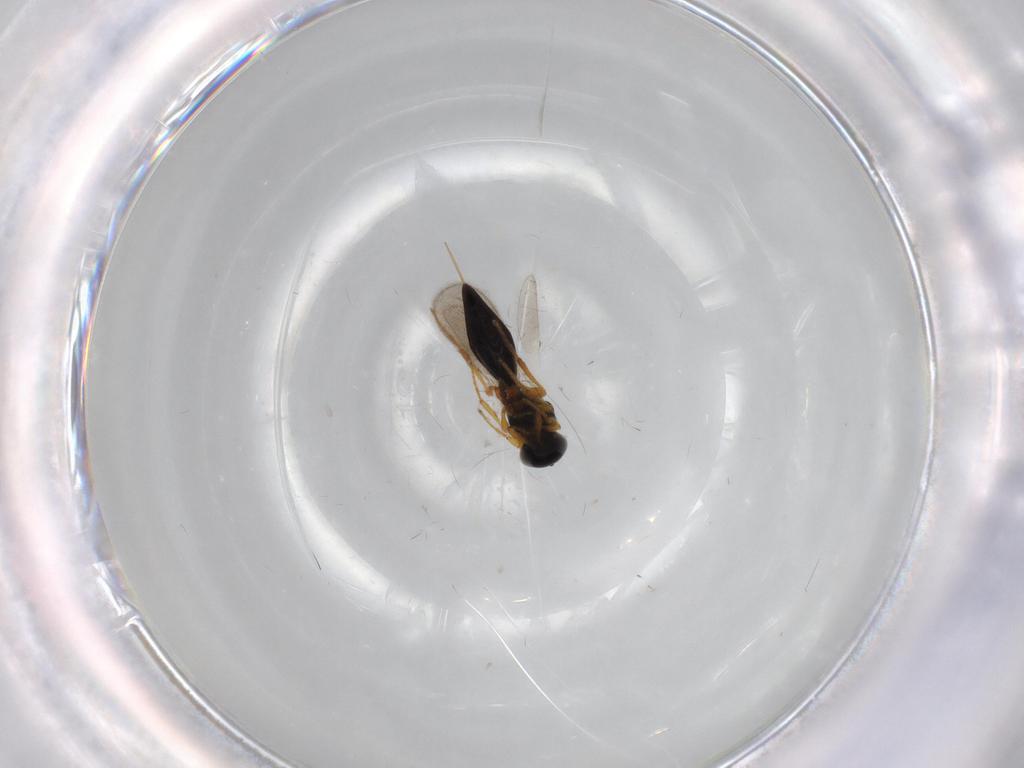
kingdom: Animalia
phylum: Arthropoda
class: Insecta
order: Hymenoptera
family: Platygastridae
